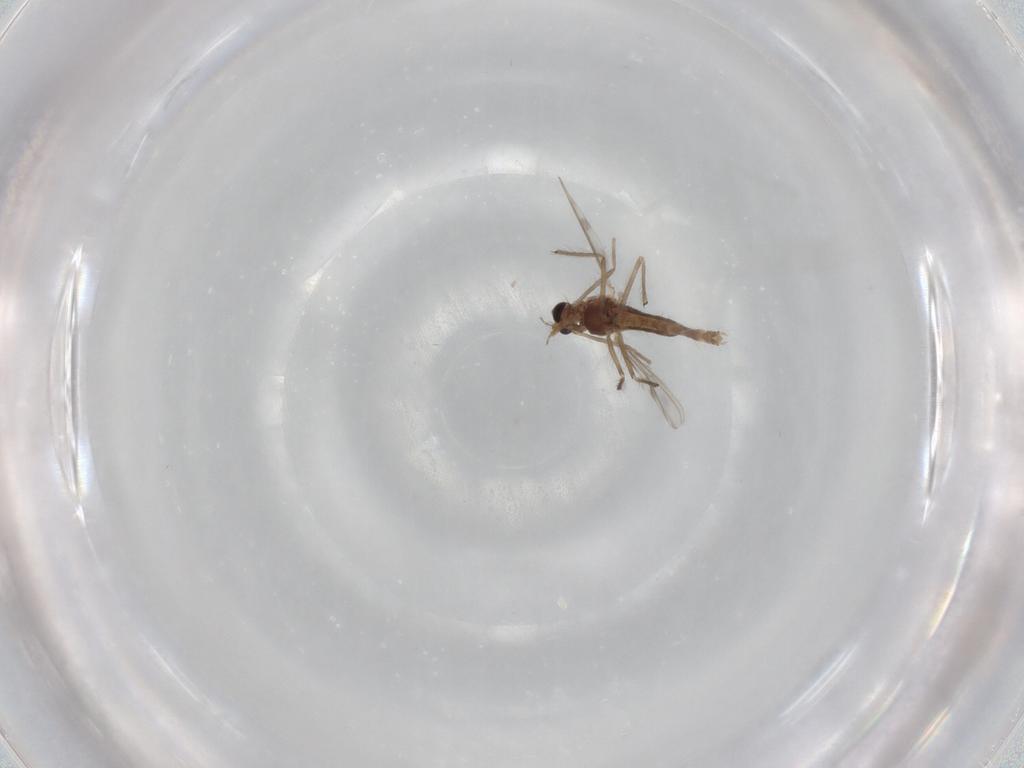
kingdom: Animalia
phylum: Arthropoda
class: Insecta
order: Diptera
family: Chironomidae
